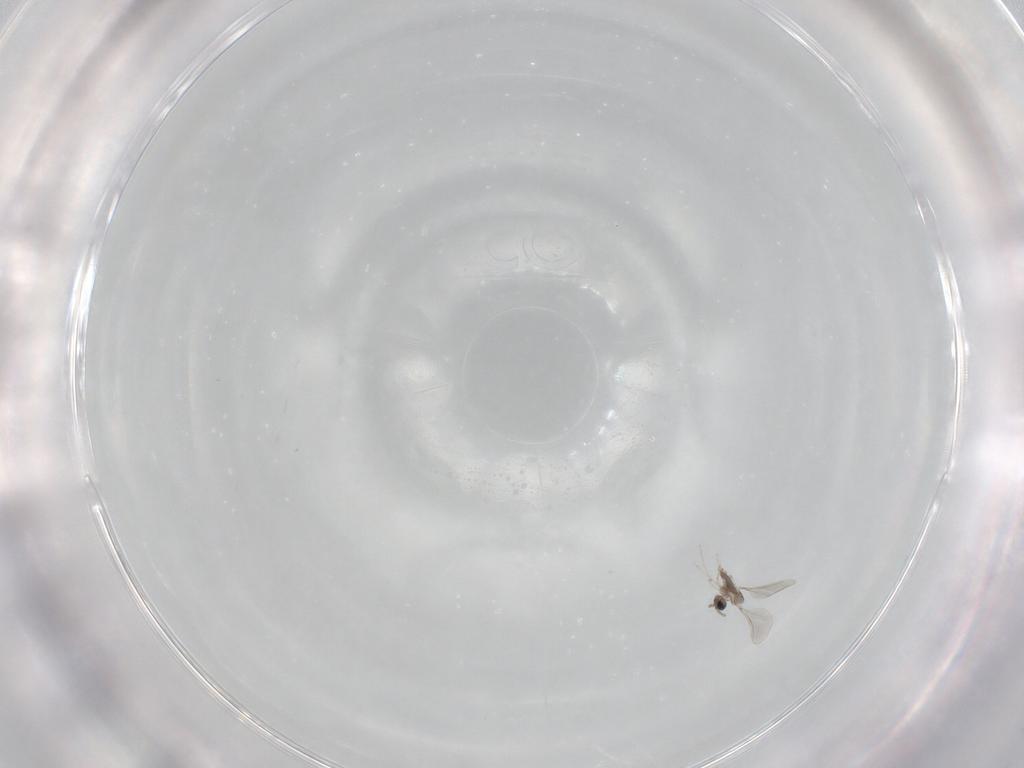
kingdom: Animalia
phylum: Arthropoda
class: Insecta
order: Diptera
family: Cecidomyiidae
